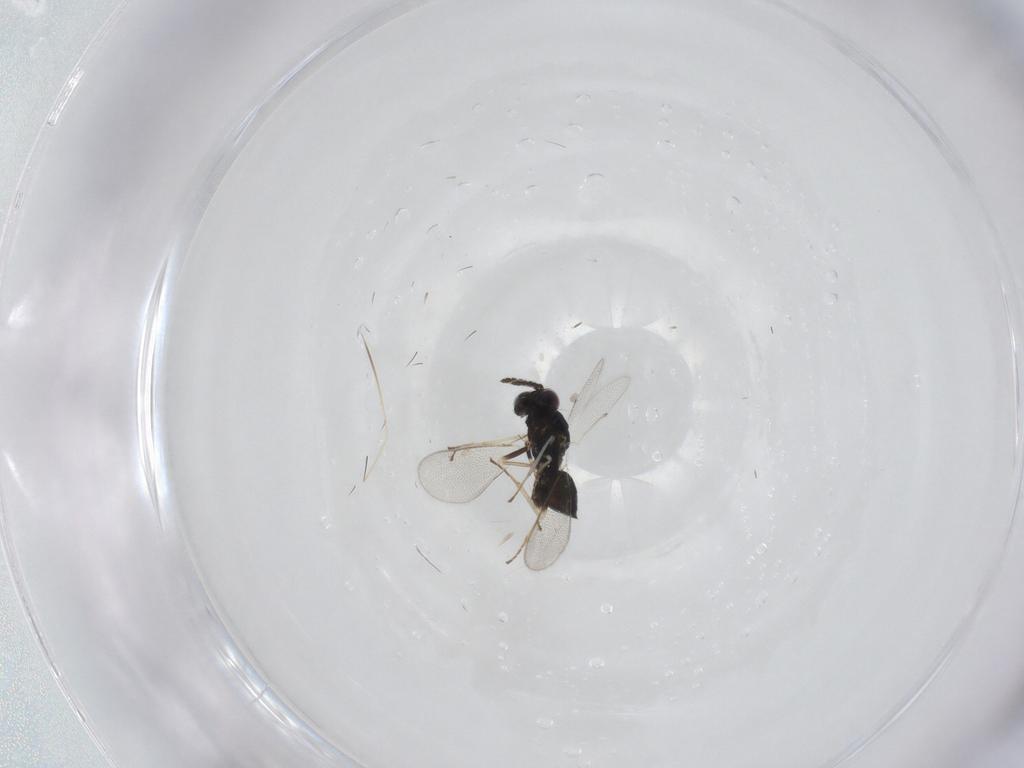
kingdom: Animalia
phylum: Arthropoda
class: Insecta
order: Hymenoptera
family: Eulophidae
